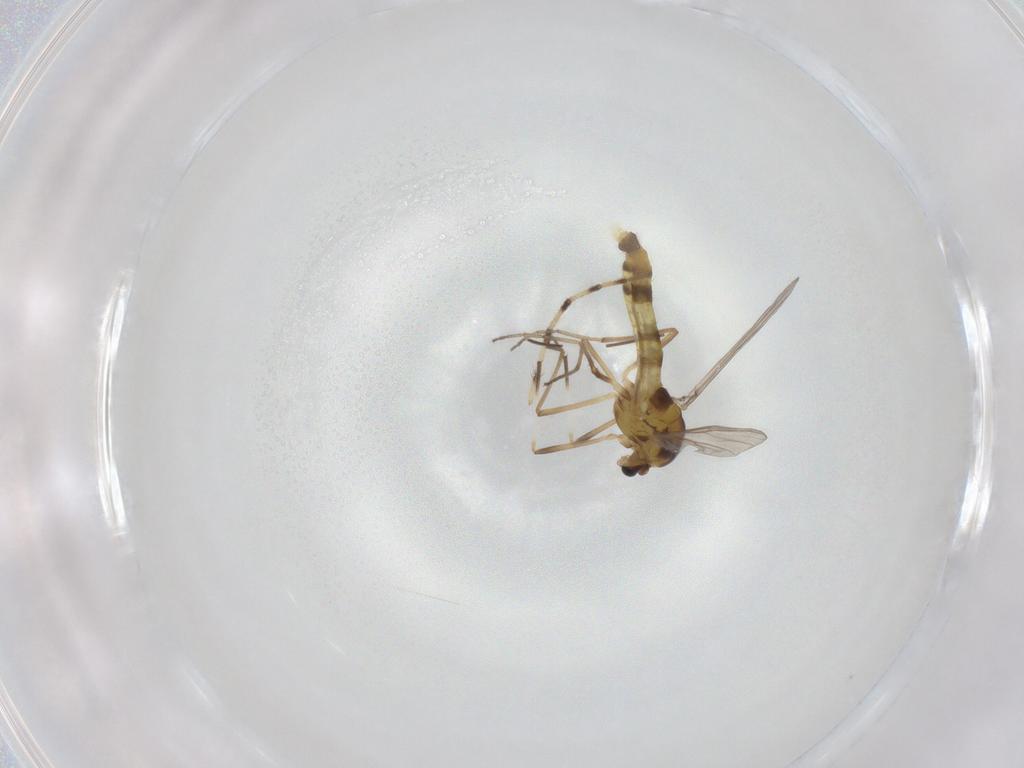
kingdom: Animalia
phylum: Arthropoda
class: Insecta
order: Diptera
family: Chironomidae
